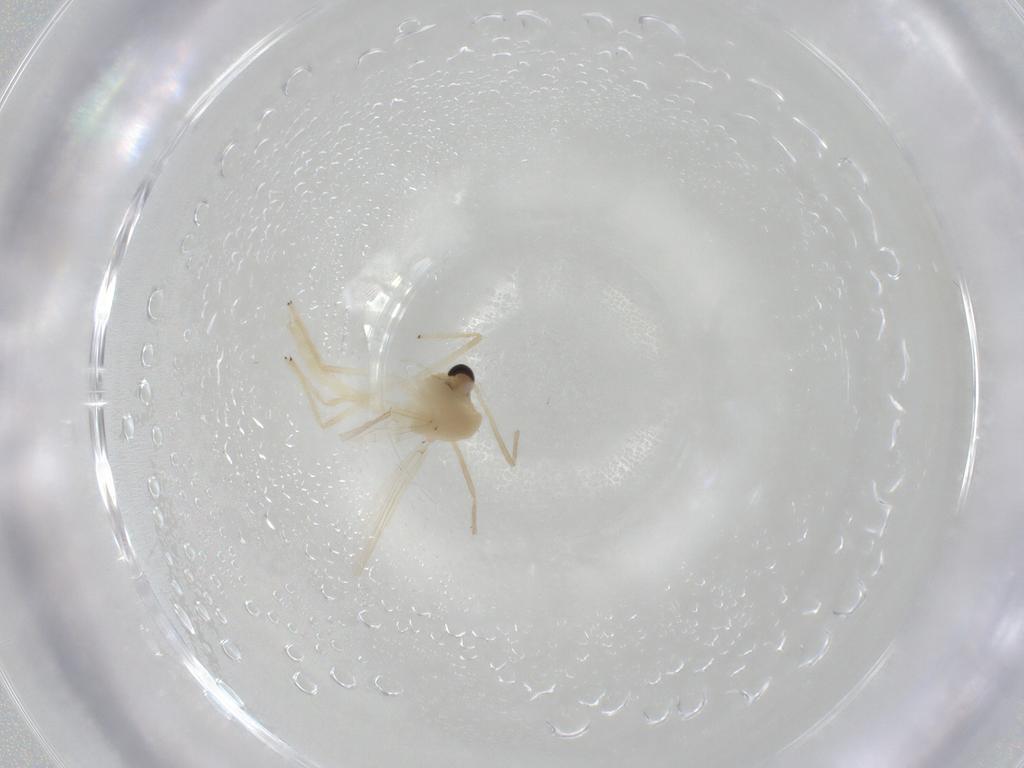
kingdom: Animalia
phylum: Arthropoda
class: Insecta
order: Diptera
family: Chironomidae
